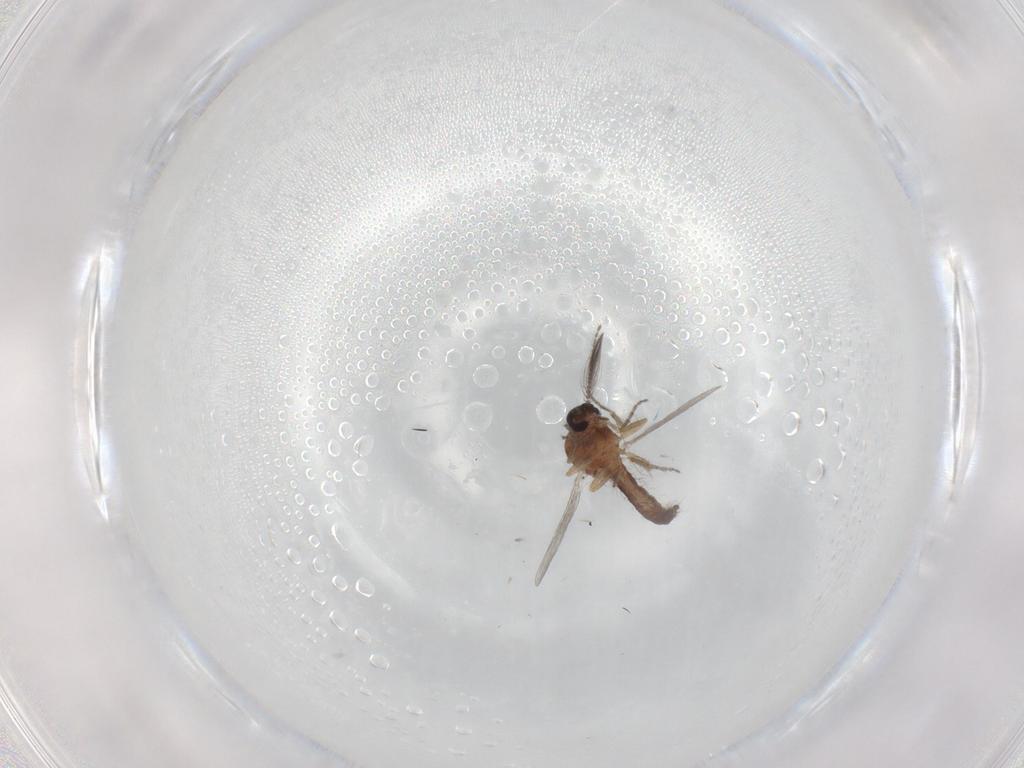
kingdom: Animalia
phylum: Arthropoda
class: Insecta
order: Diptera
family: Ceratopogonidae
